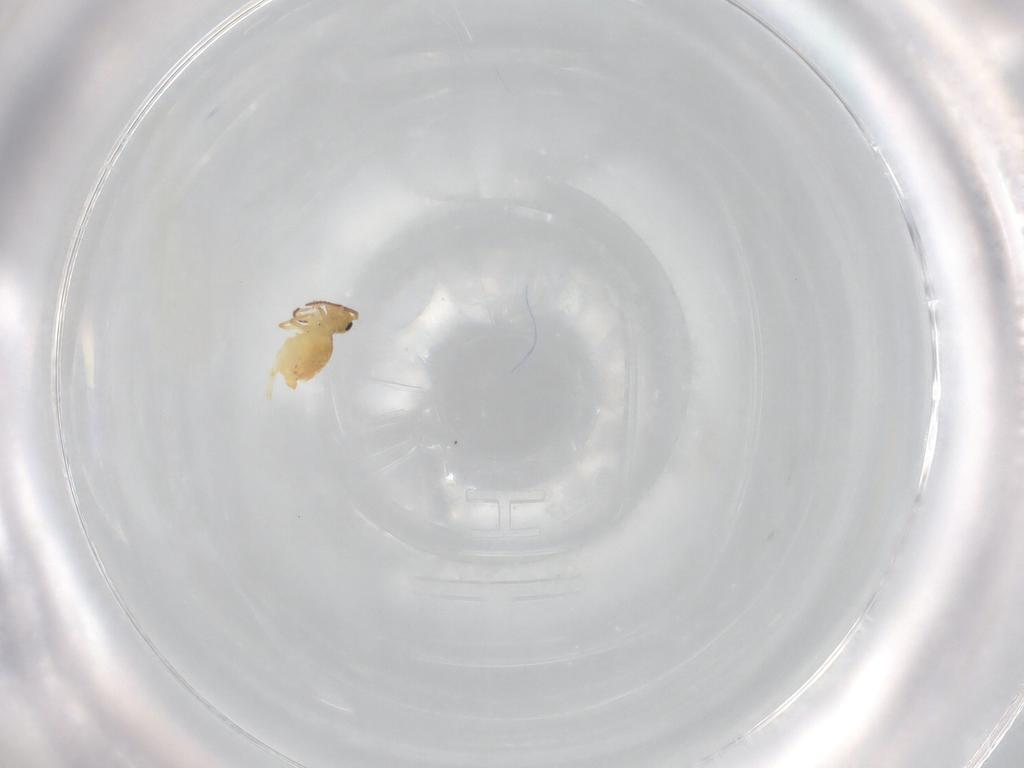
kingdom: Animalia
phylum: Arthropoda
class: Collembola
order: Symphypleona
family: Bourletiellidae
